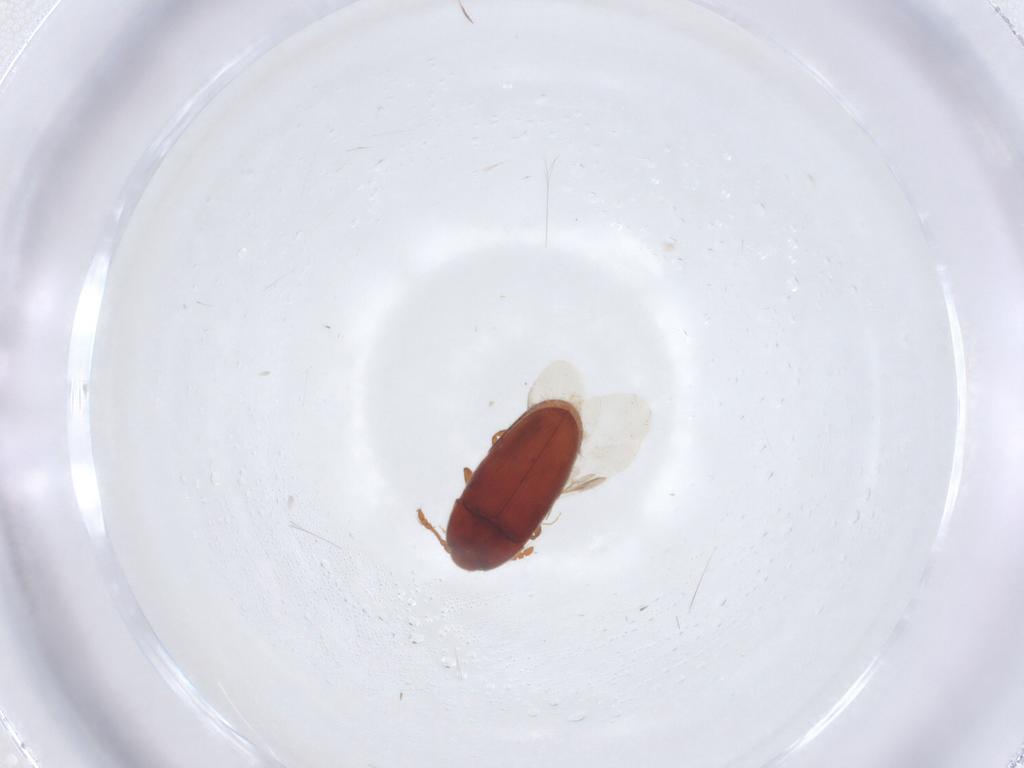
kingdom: Animalia
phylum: Arthropoda
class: Insecta
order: Coleoptera
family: Throscidae
